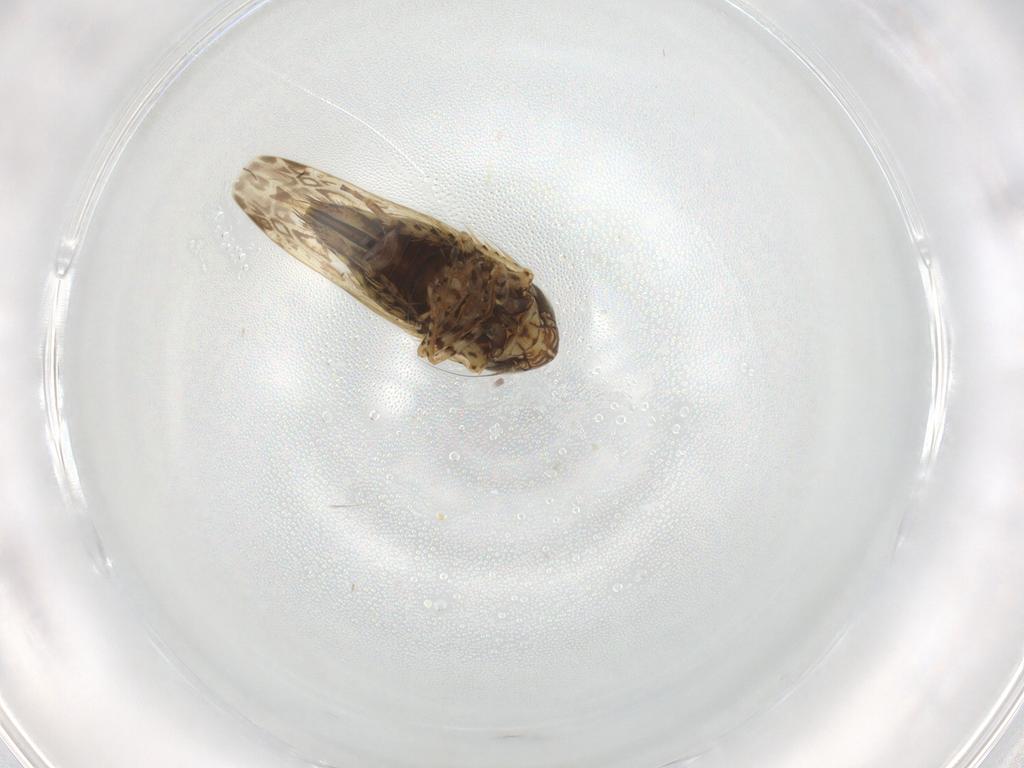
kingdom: Animalia
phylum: Arthropoda
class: Insecta
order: Hemiptera
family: Cicadellidae
